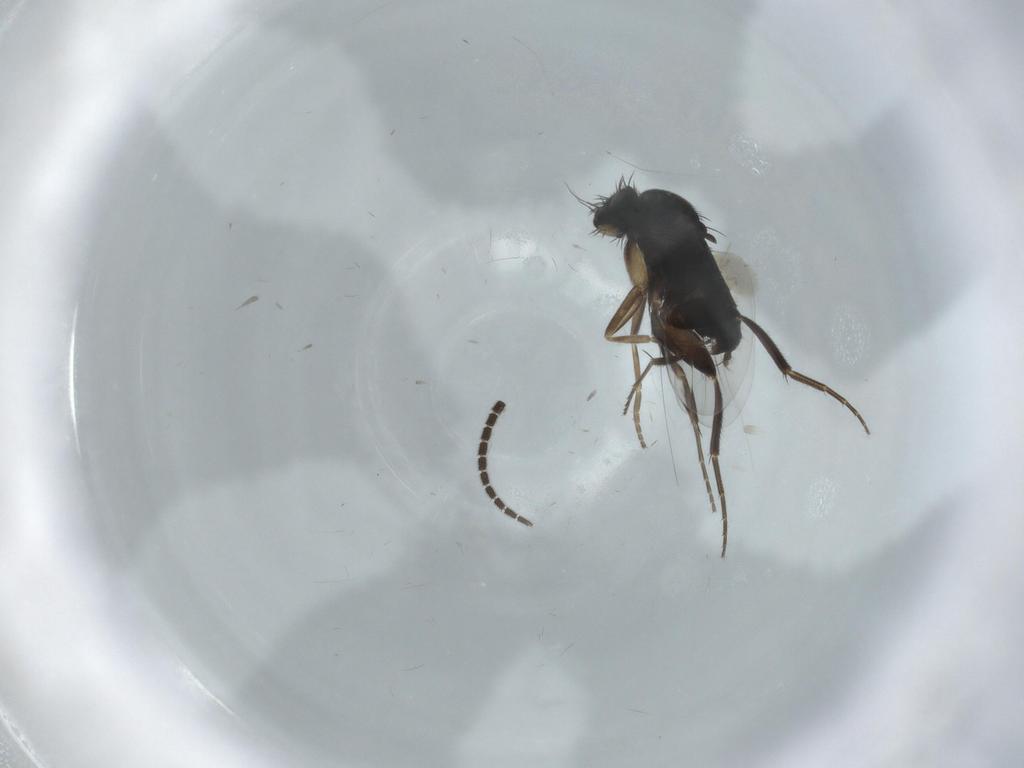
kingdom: Animalia
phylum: Arthropoda
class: Insecta
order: Diptera
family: Phoridae
